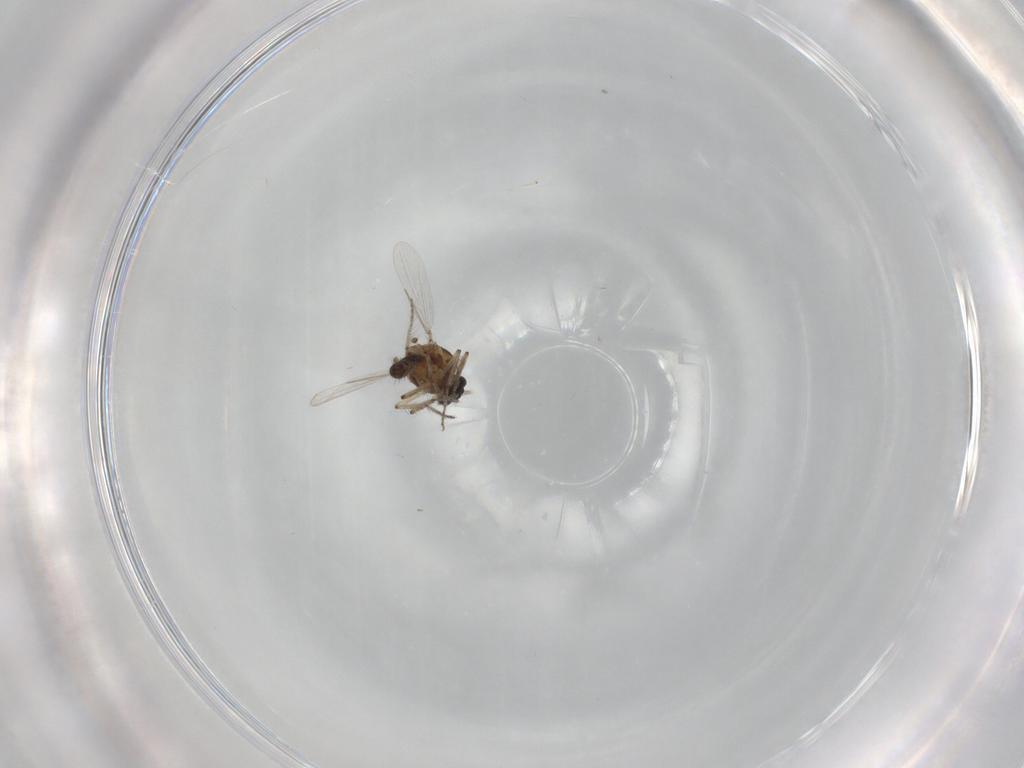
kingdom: Animalia
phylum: Arthropoda
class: Insecta
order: Diptera
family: Ceratopogonidae
